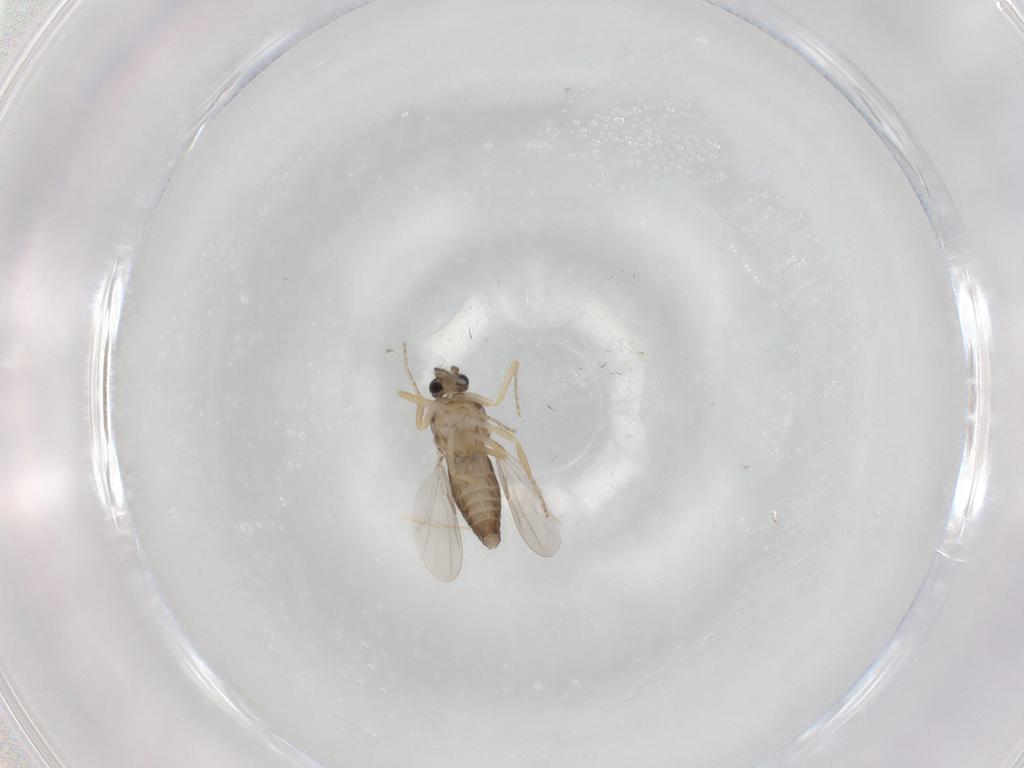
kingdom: Animalia
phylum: Arthropoda
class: Insecta
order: Diptera
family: Ceratopogonidae
